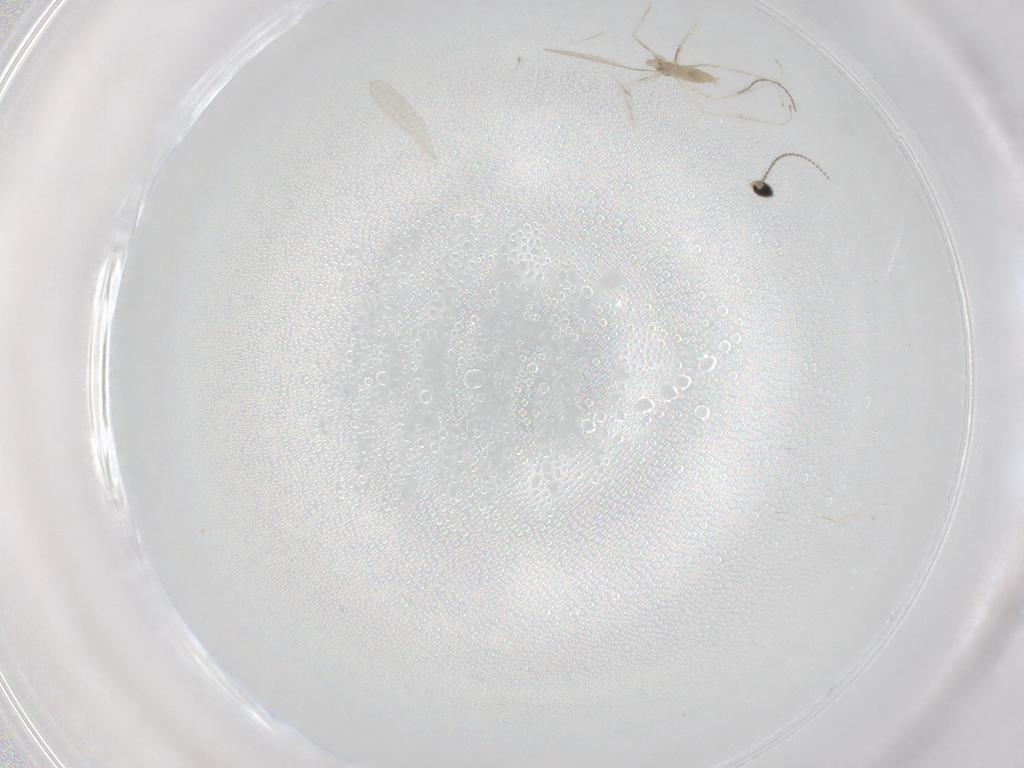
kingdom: Animalia
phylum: Arthropoda
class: Insecta
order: Diptera
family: Cecidomyiidae
